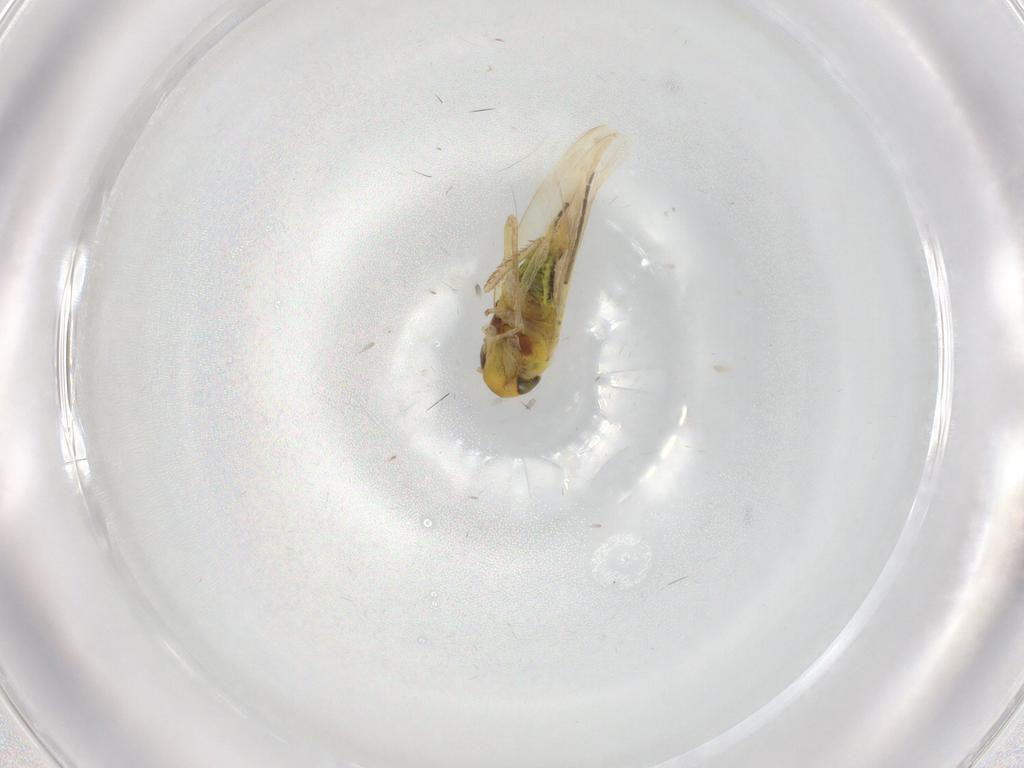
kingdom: Animalia
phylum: Arthropoda
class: Insecta
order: Hemiptera
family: Cicadellidae
